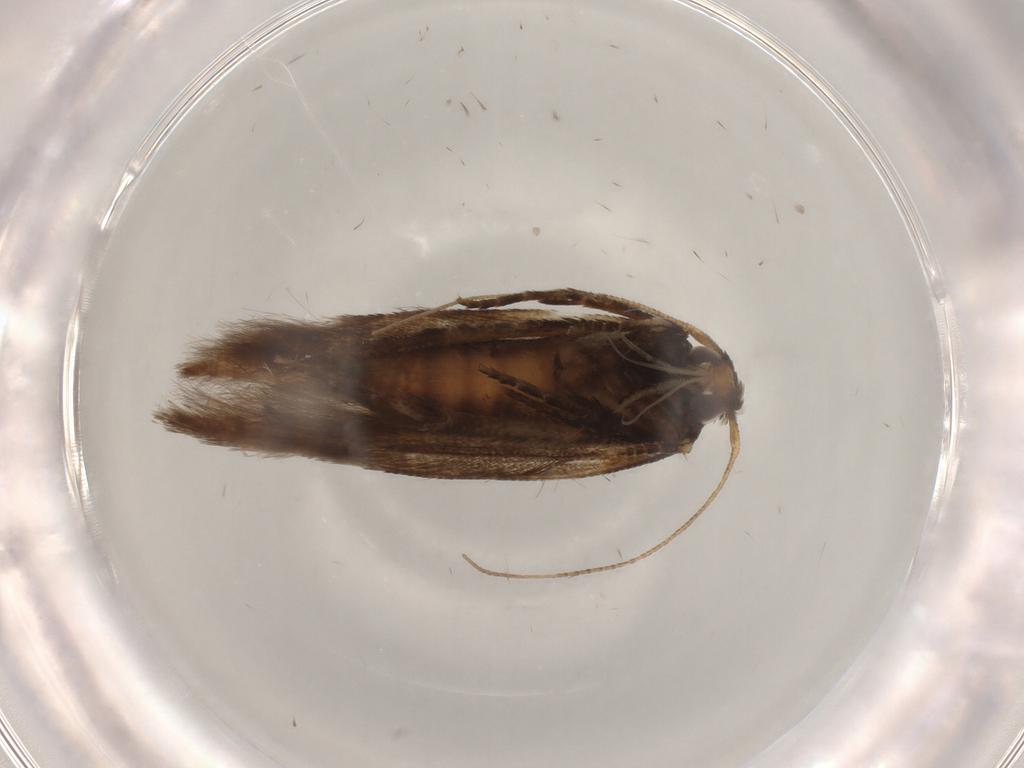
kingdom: Animalia
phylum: Arthropoda
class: Insecta
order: Lepidoptera
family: Cosmopterigidae
